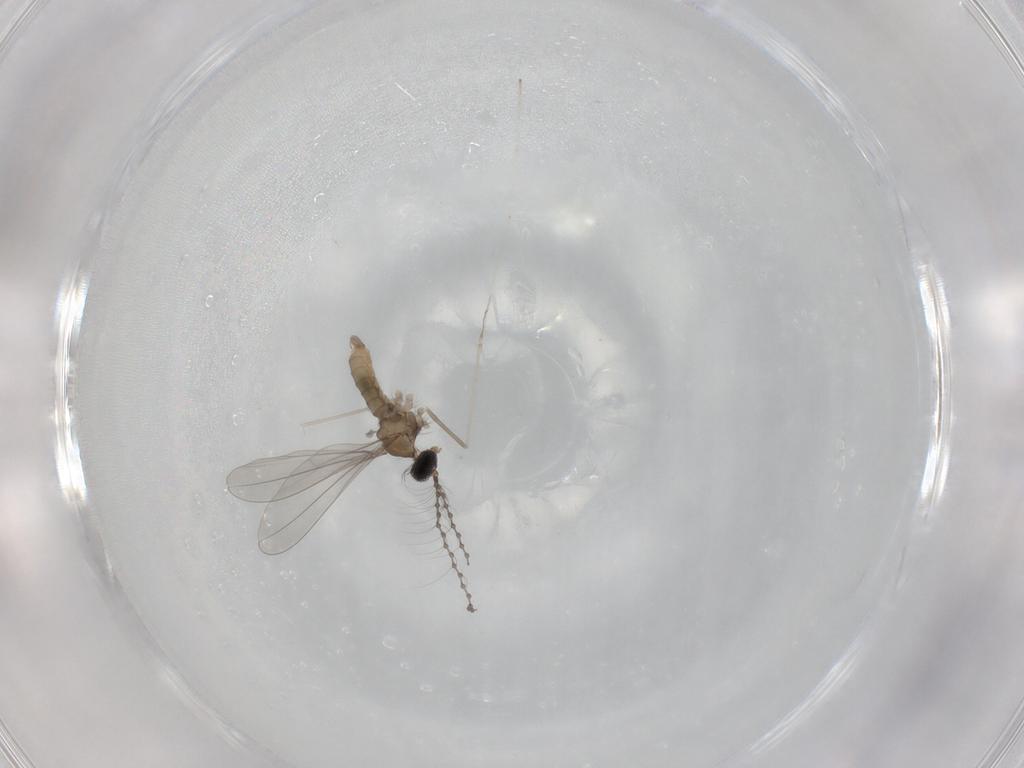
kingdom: Animalia
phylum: Arthropoda
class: Insecta
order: Diptera
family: Cecidomyiidae
